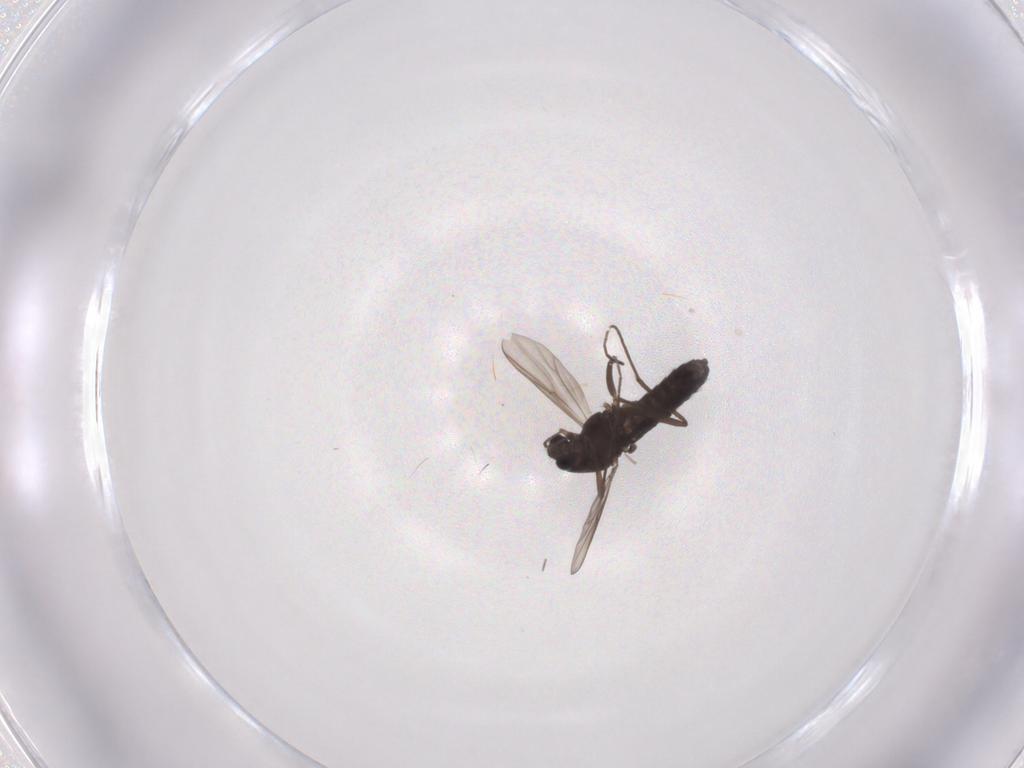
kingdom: Animalia
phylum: Arthropoda
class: Insecta
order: Diptera
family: Chironomidae
